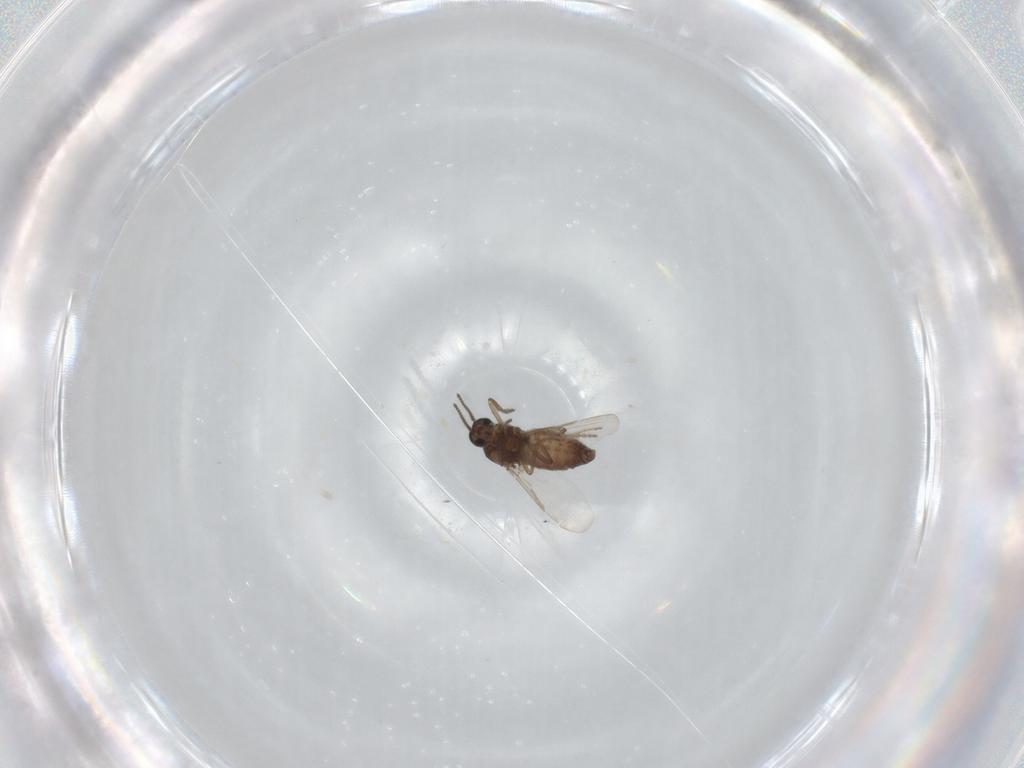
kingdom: Animalia
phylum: Arthropoda
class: Insecta
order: Diptera
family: Ceratopogonidae
